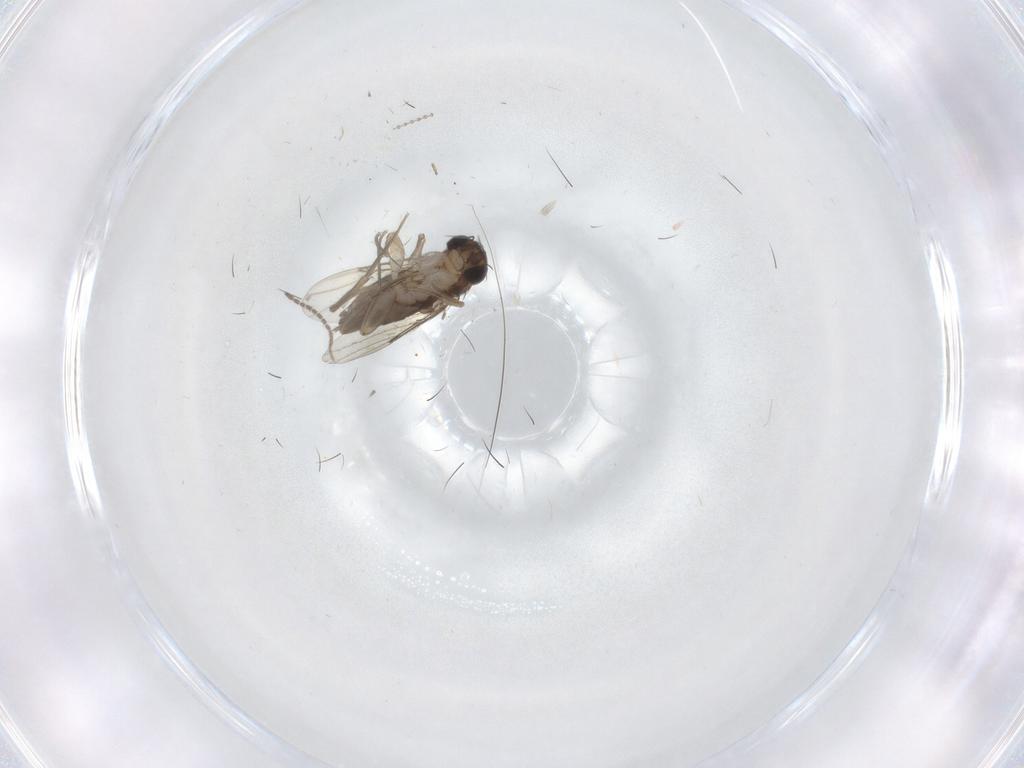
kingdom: Animalia
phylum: Arthropoda
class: Insecta
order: Diptera
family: Phoridae
